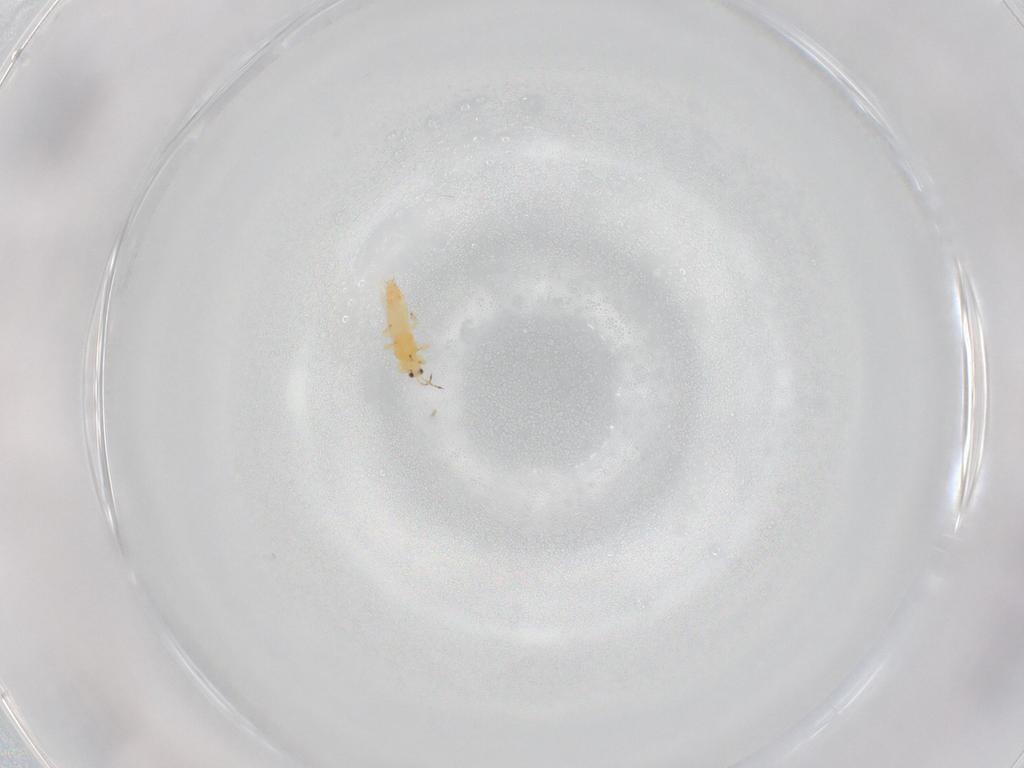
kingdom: Animalia
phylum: Arthropoda
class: Insecta
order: Thysanoptera
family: Thripidae
